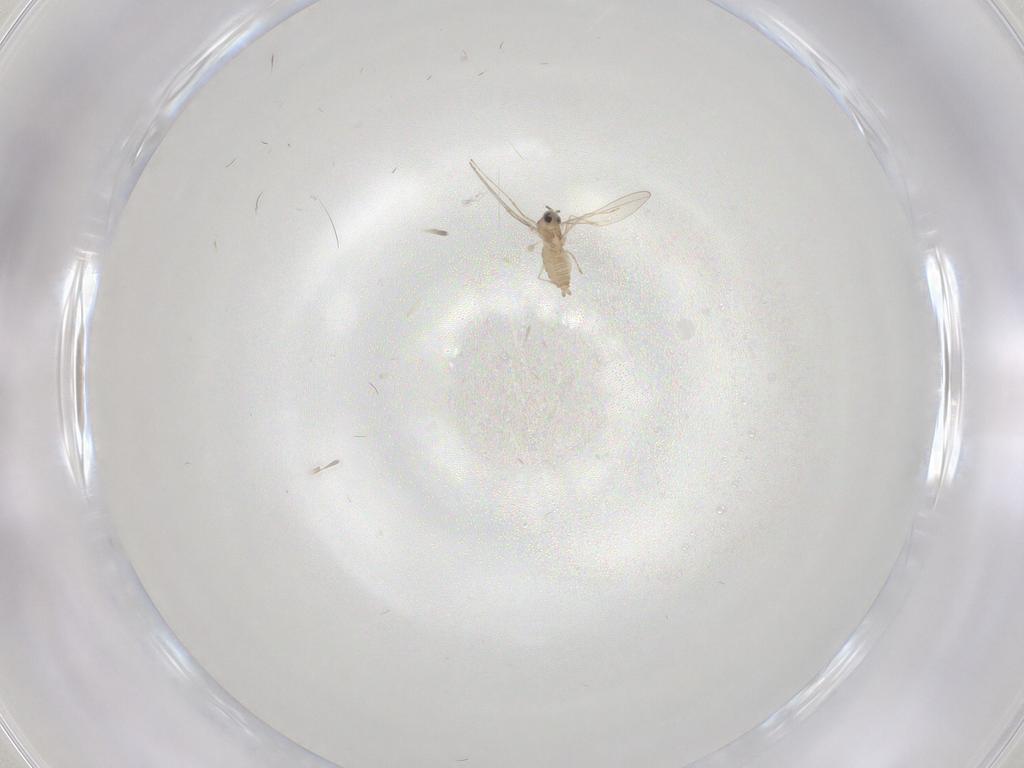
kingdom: Animalia
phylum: Arthropoda
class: Insecta
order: Diptera
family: Cecidomyiidae
